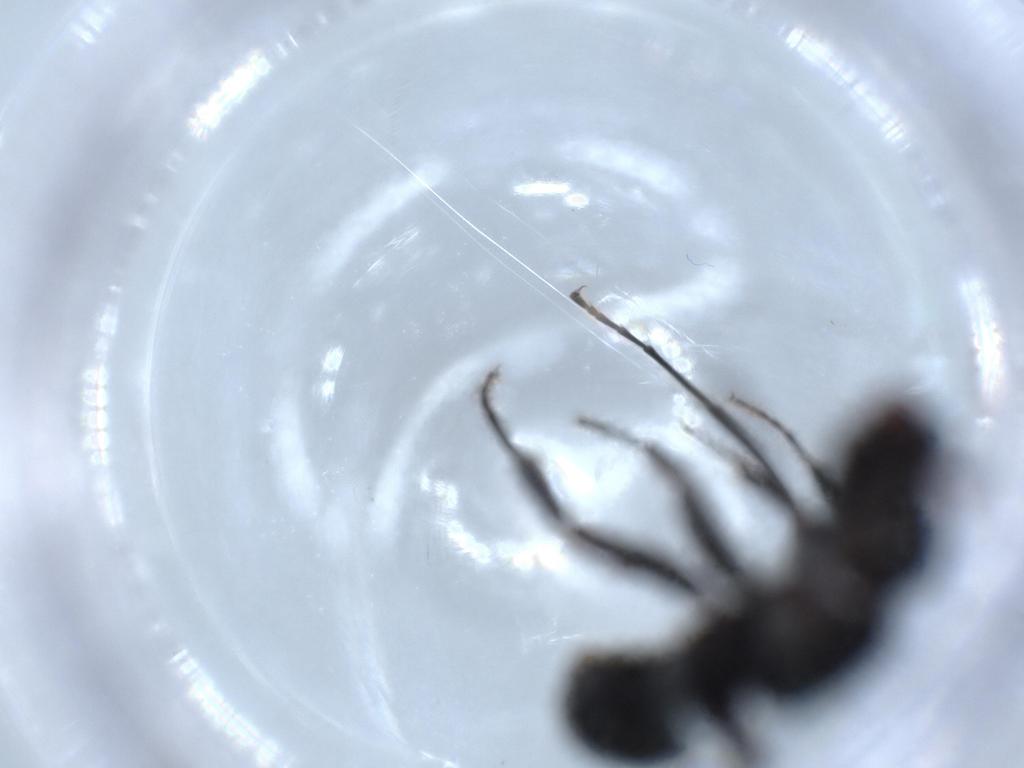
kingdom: Animalia
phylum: Arthropoda
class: Insecta
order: Hymenoptera
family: Formicidae
